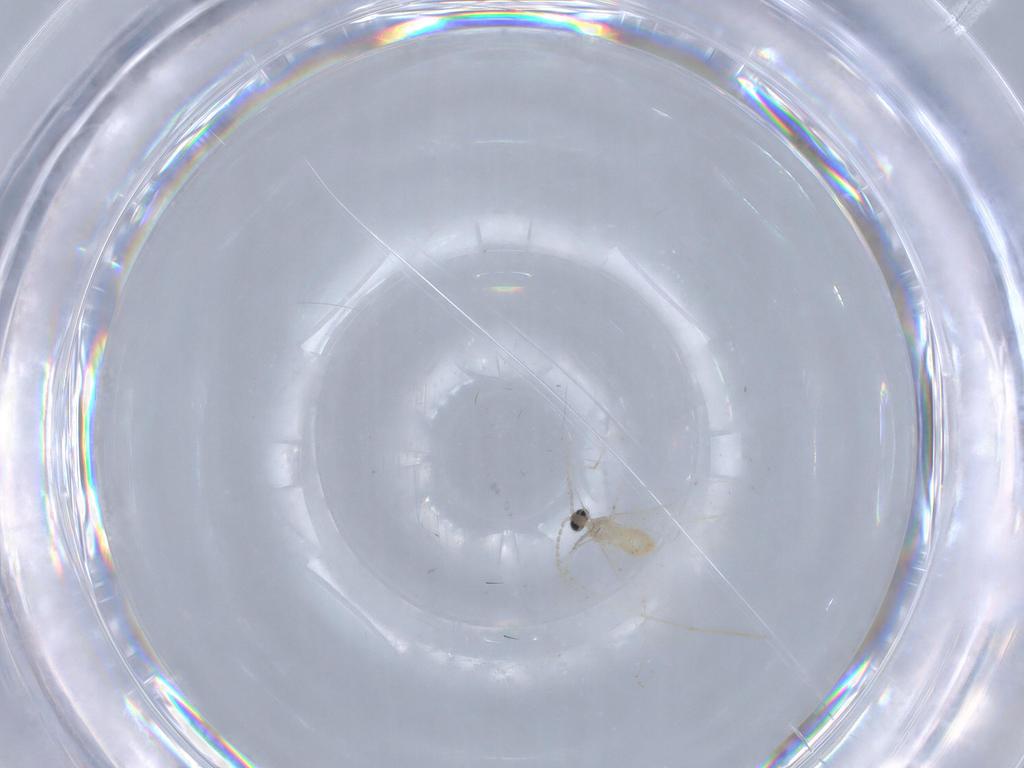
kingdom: Animalia
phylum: Arthropoda
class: Insecta
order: Diptera
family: Cecidomyiidae
